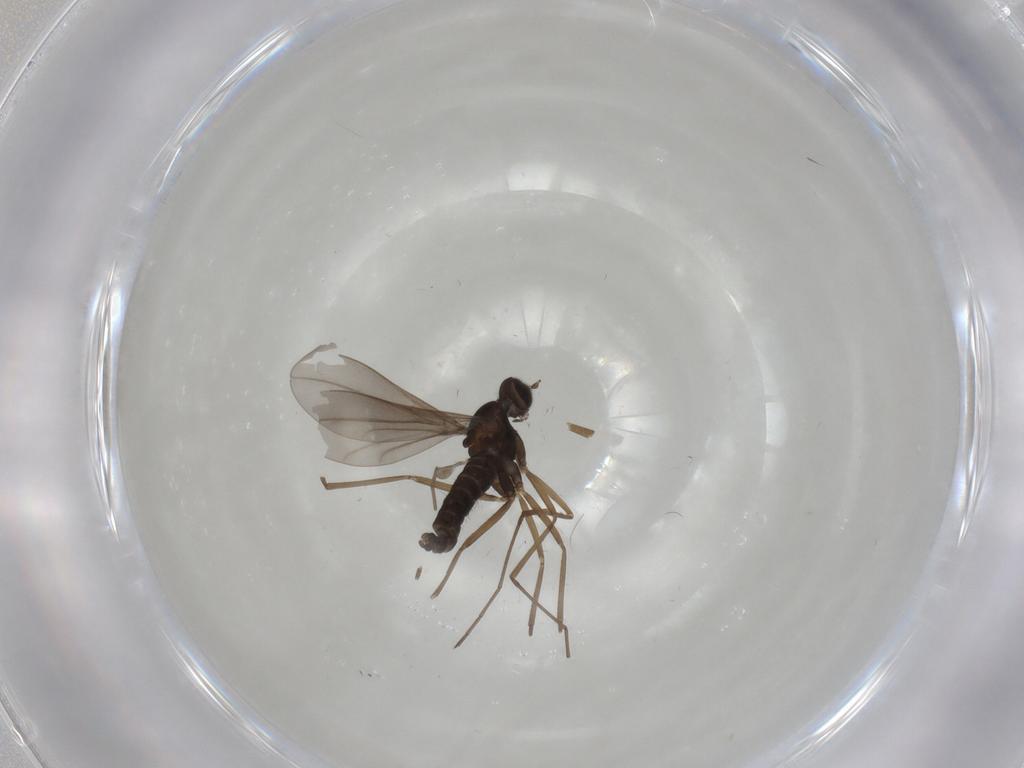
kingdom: Animalia
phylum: Arthropoda
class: Insecta
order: Diptera
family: Cecidomyiidae
